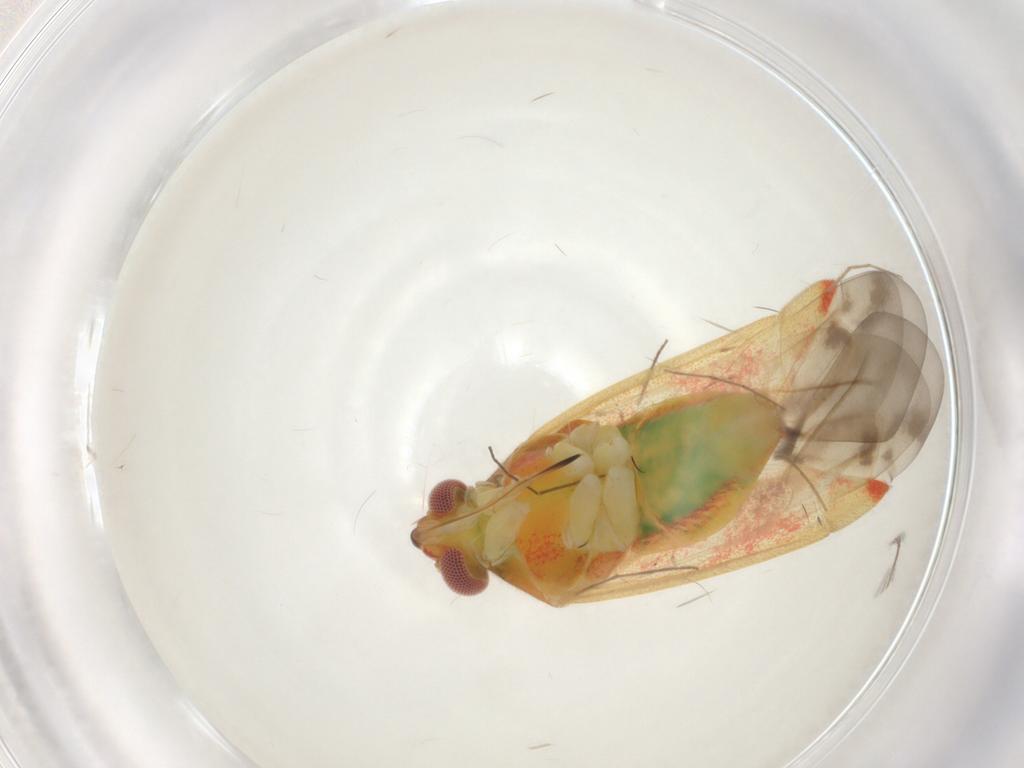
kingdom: Animalia
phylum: Arthropoda
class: Insecta
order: Hemiptera
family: Miridae
